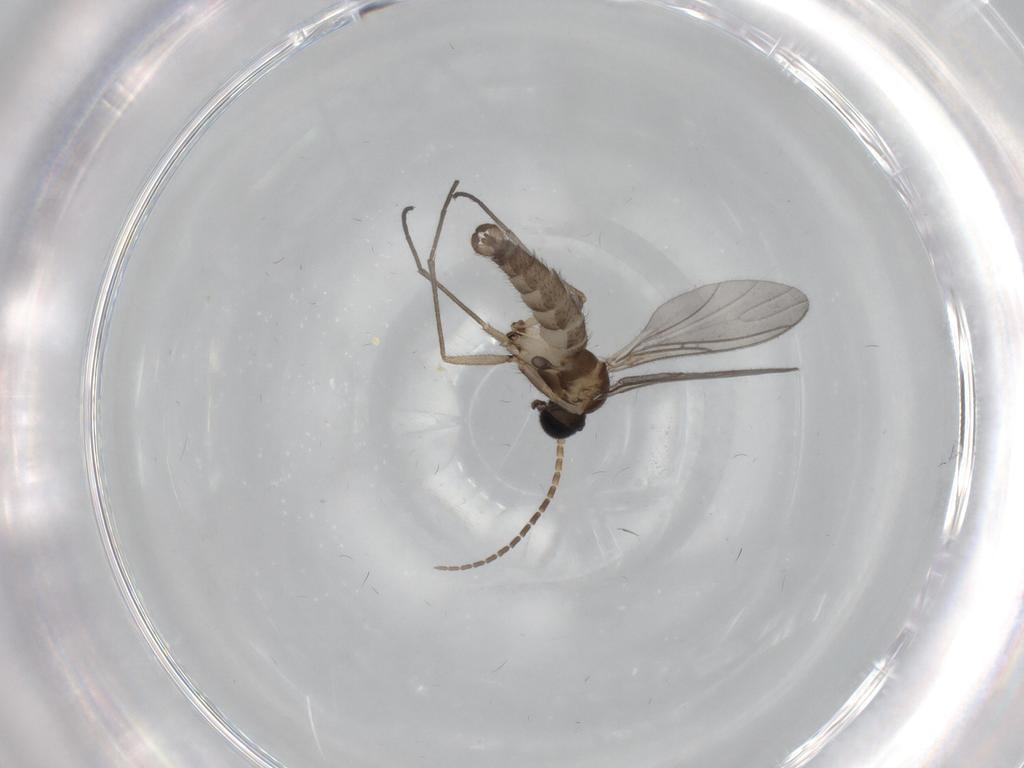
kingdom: Animalia
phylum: Arthropoda
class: Insecta
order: Diptera
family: Sciaridae
